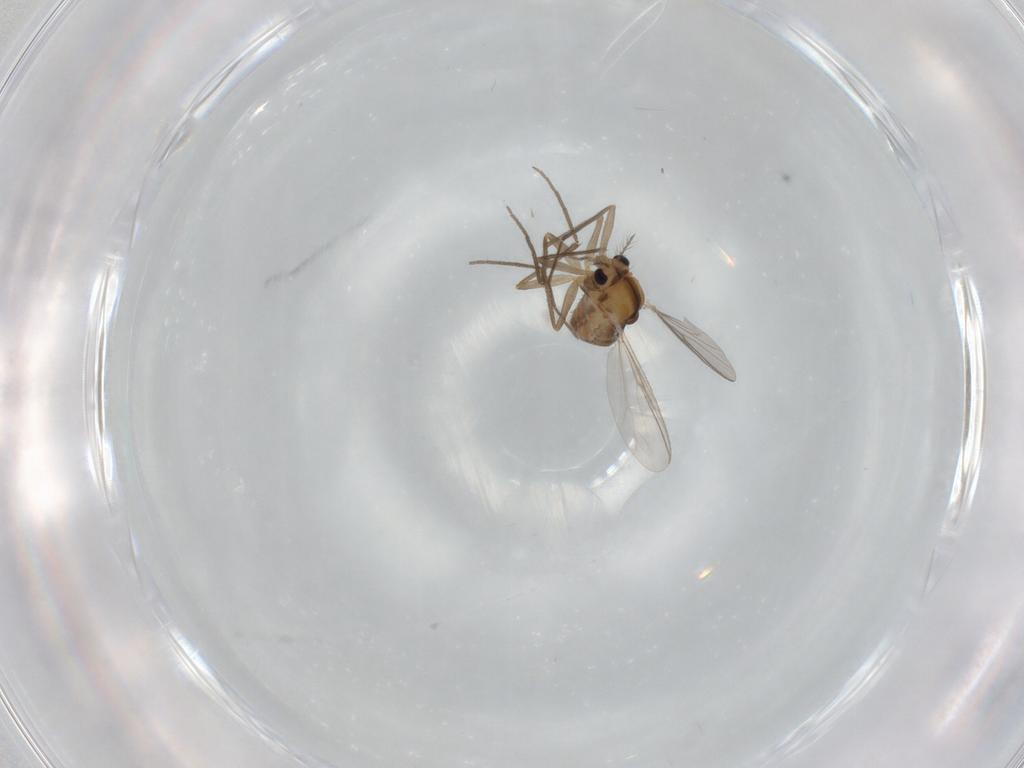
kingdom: Animalia
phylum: Arthropoda
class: Insecta
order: Diptera
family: Chironomidae
